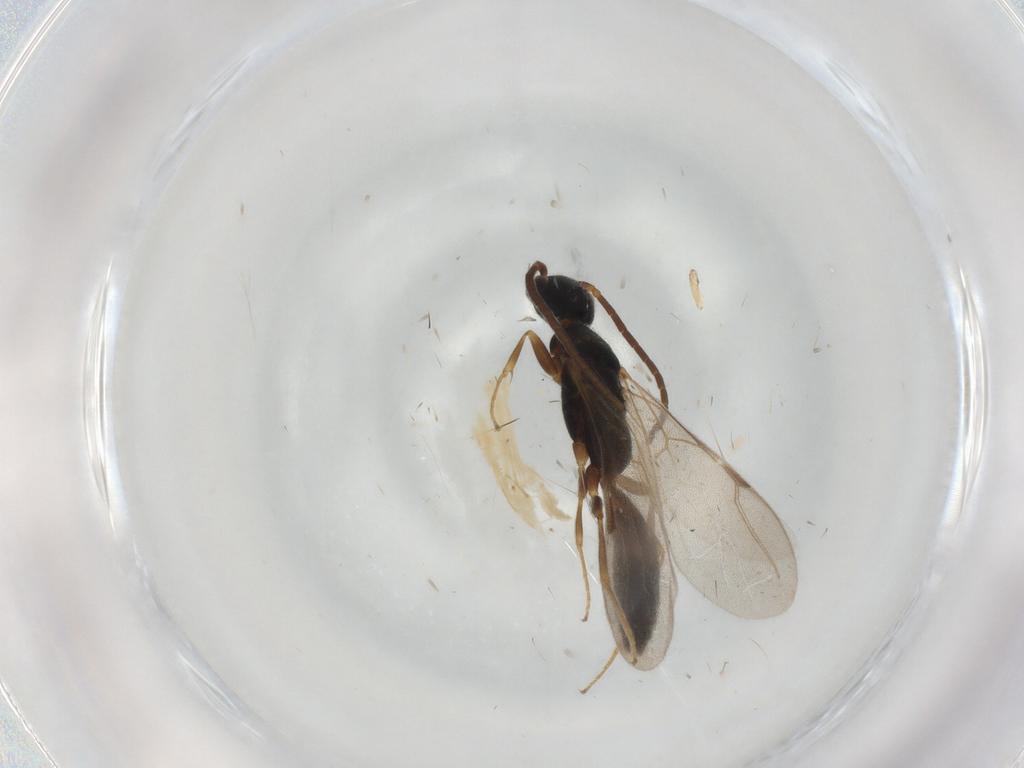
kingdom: Animalia
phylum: Arthropoda
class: Insecta
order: Hymenoptera
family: Bethylidae
